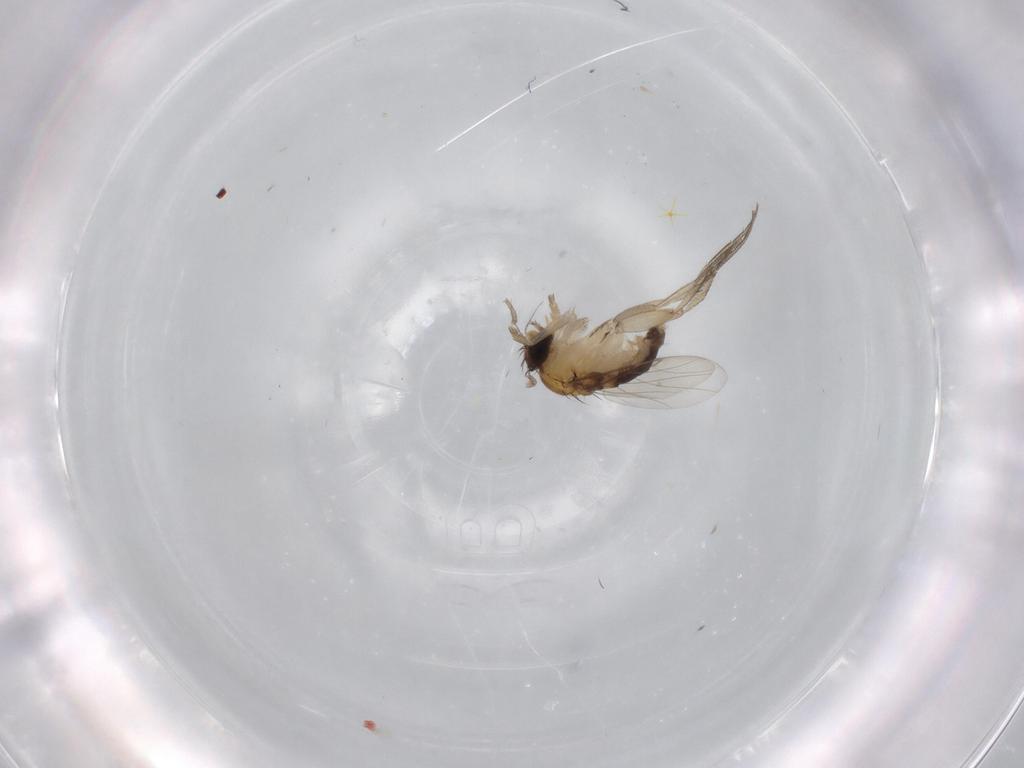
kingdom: Animalia
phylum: Arthropoda
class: Insecta
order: Diptera
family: Phoridae
